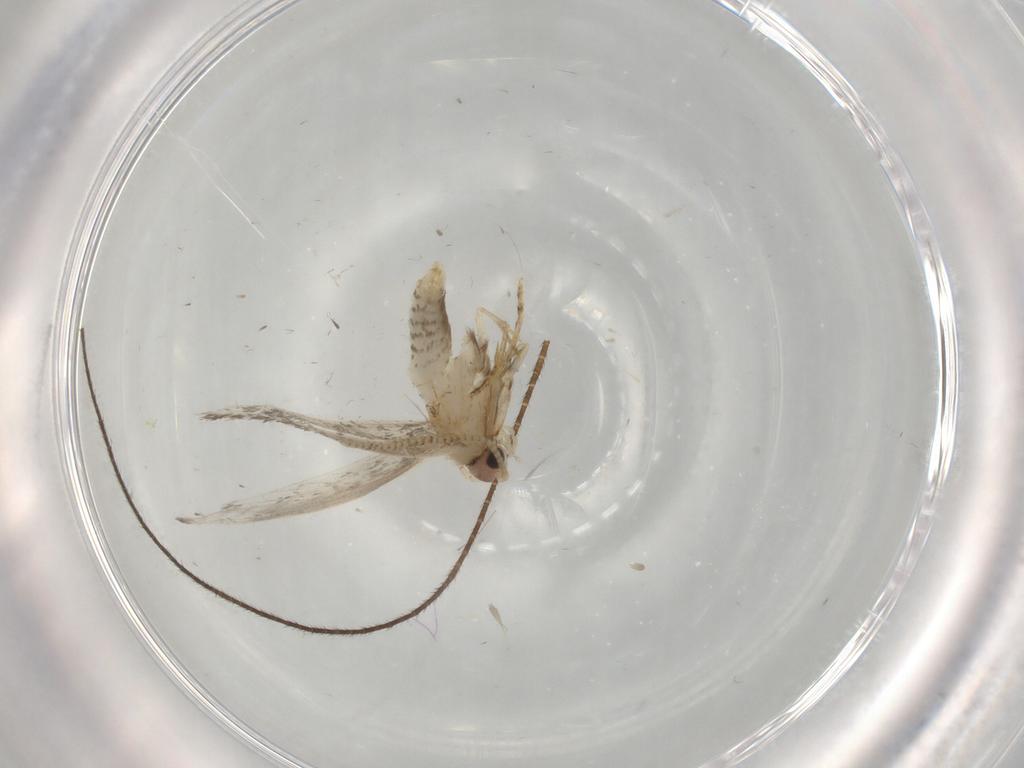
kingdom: Animalia
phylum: Arthropoda
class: Insecta
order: Lepidoptera
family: Tineidae
